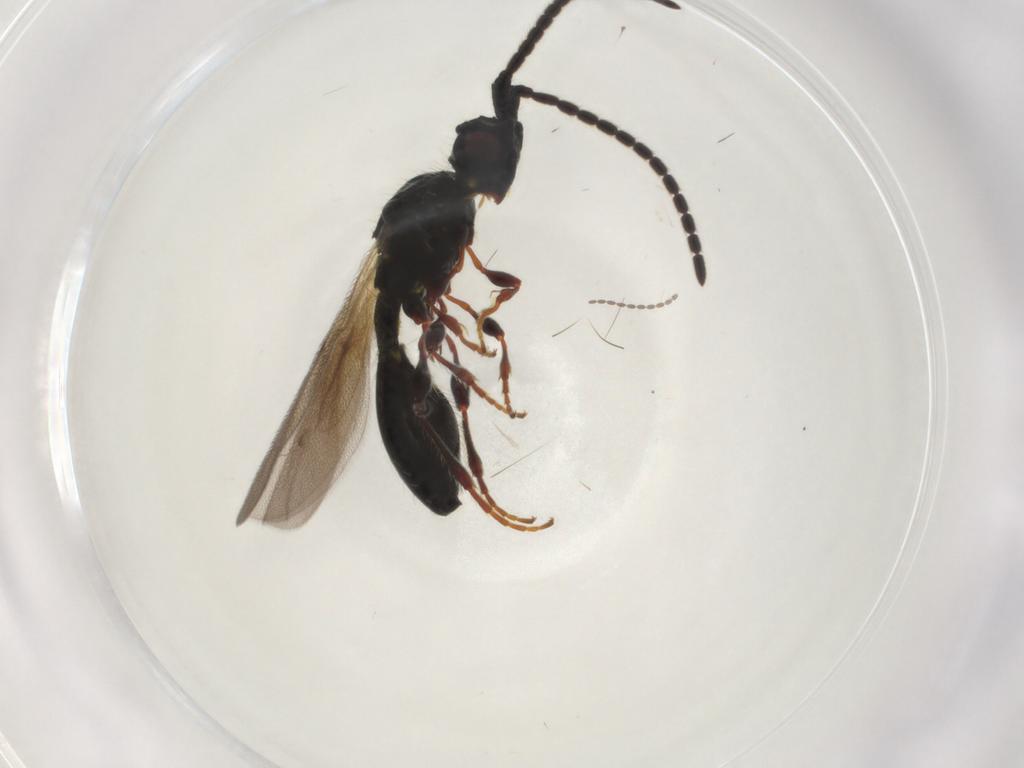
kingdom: Animalia
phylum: Arthropoda
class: Insecta
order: Hymenoptera
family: Diapriidae
